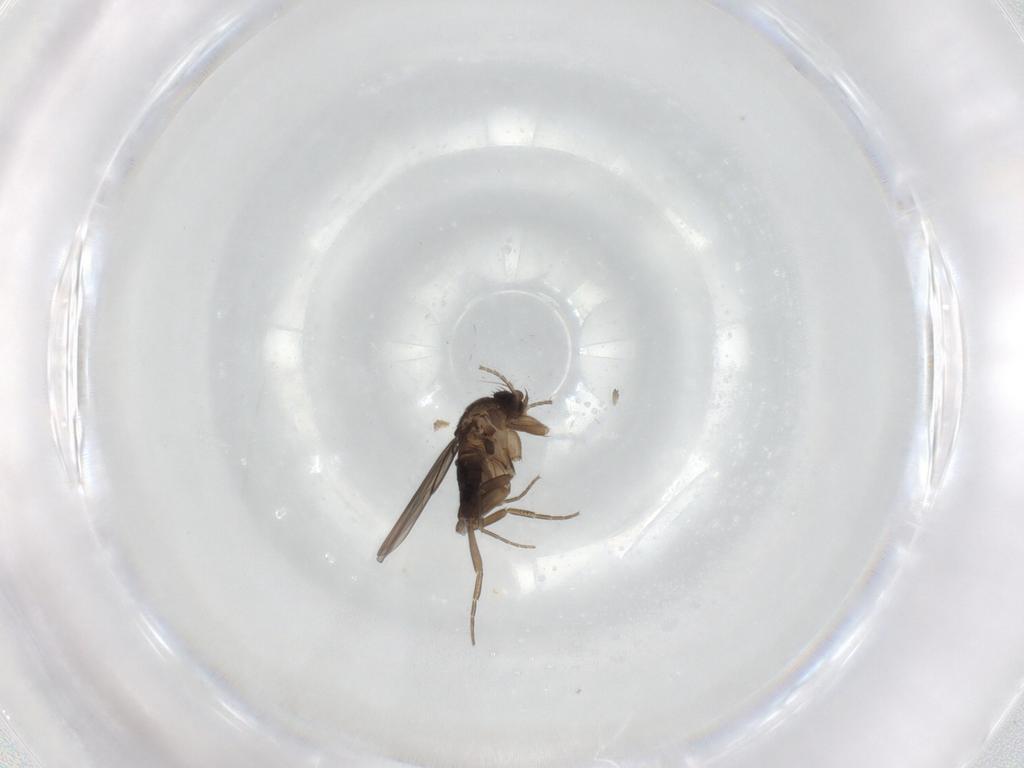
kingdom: Animalia
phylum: Arthropoda
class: Insecta
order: Diptera
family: Phoridae
